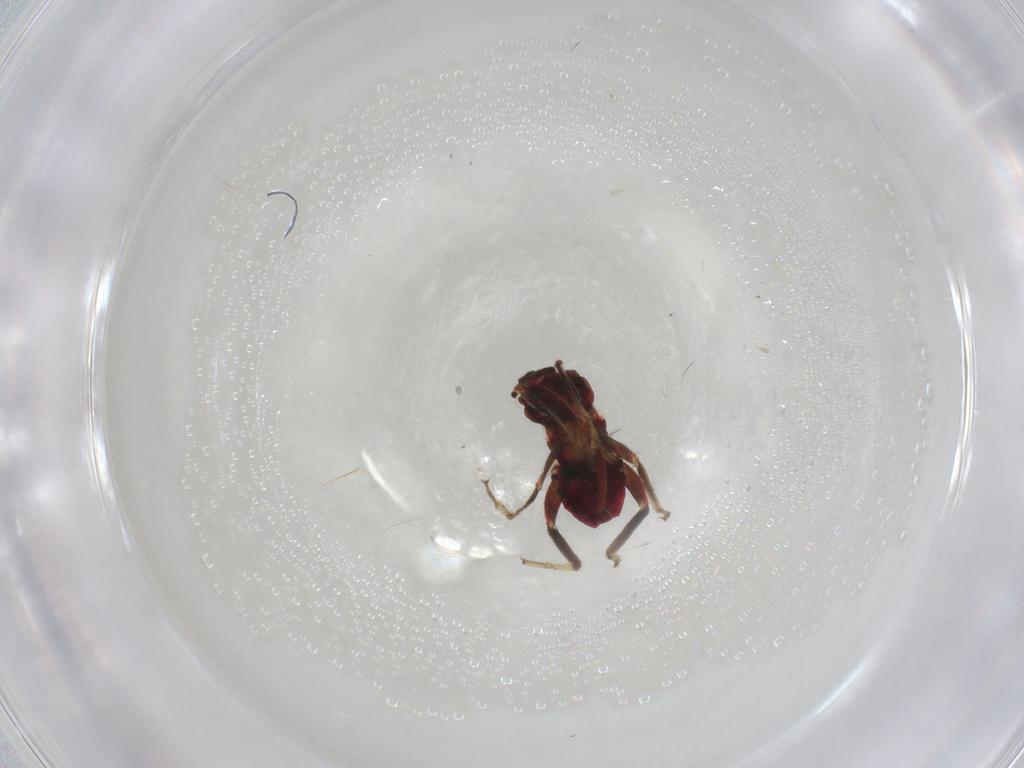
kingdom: Animalia
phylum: Arthropoda
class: Insecta
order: Hemiptera
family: Rhyparochromidae
